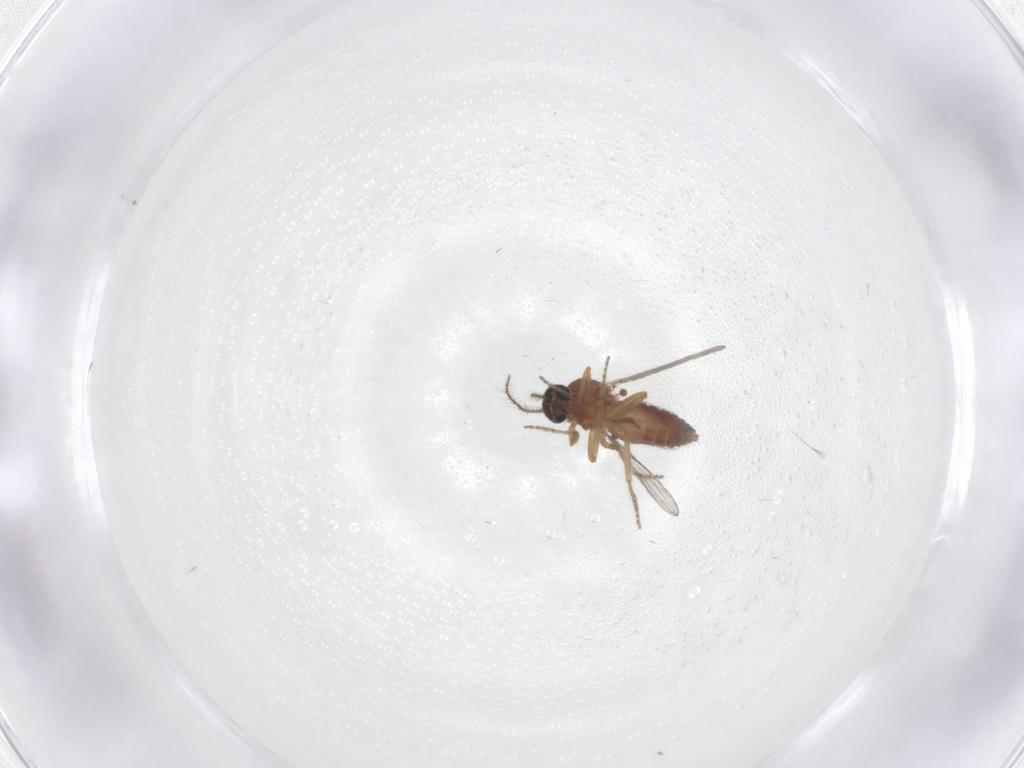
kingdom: Animalia
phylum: Arthropoda
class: Insecta
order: Diptera
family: Ceratopogonidae
